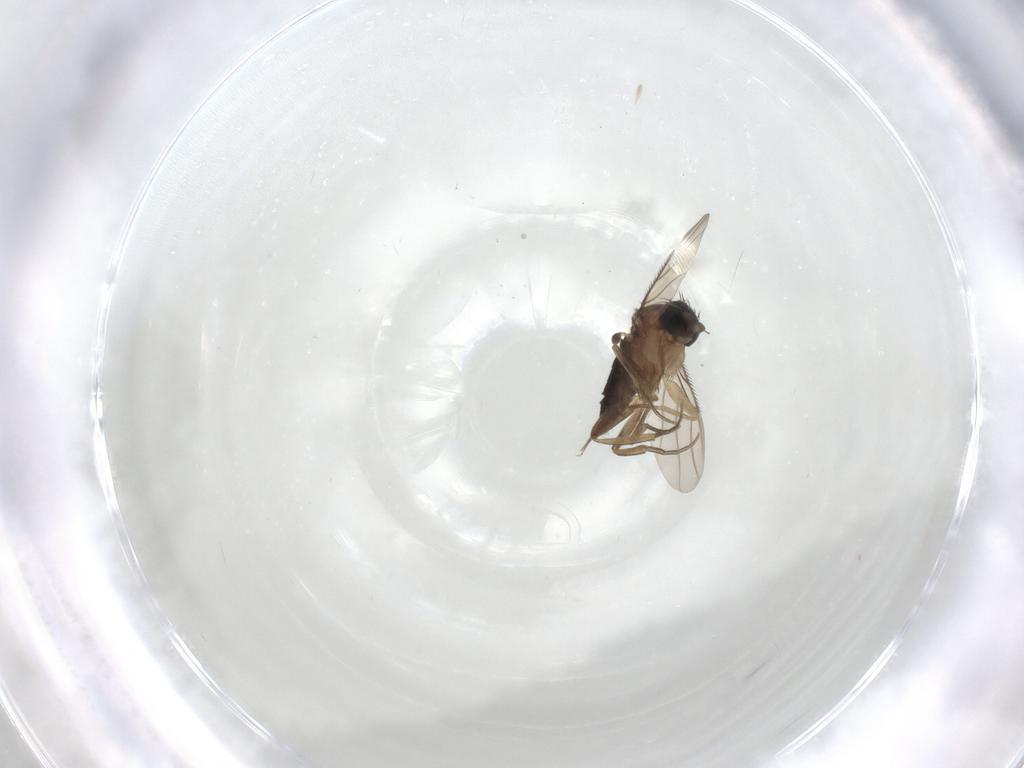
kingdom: Animalia
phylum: Arthropoda
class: Insecta
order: Diptera
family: Phoridae
